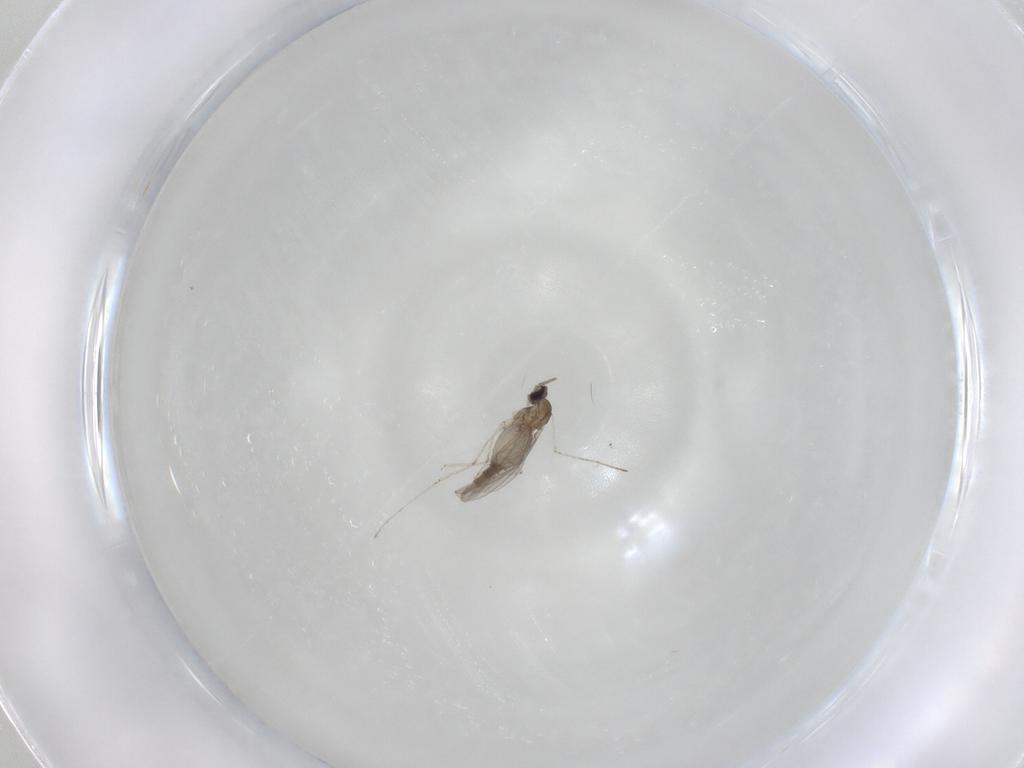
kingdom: Animalia
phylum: Arthropoda
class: Insecta
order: Diptera
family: Cecidomyiidae
